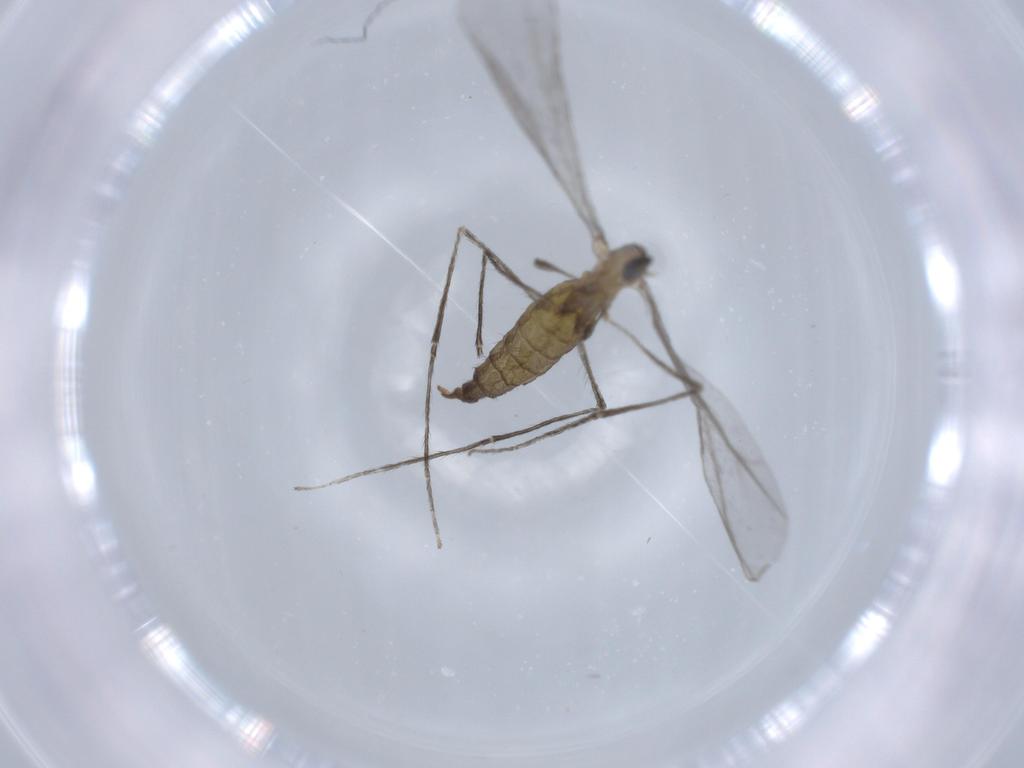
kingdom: Animalia
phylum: Arthropoda
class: Insecta
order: Diptera
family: Cecidomyiidae
